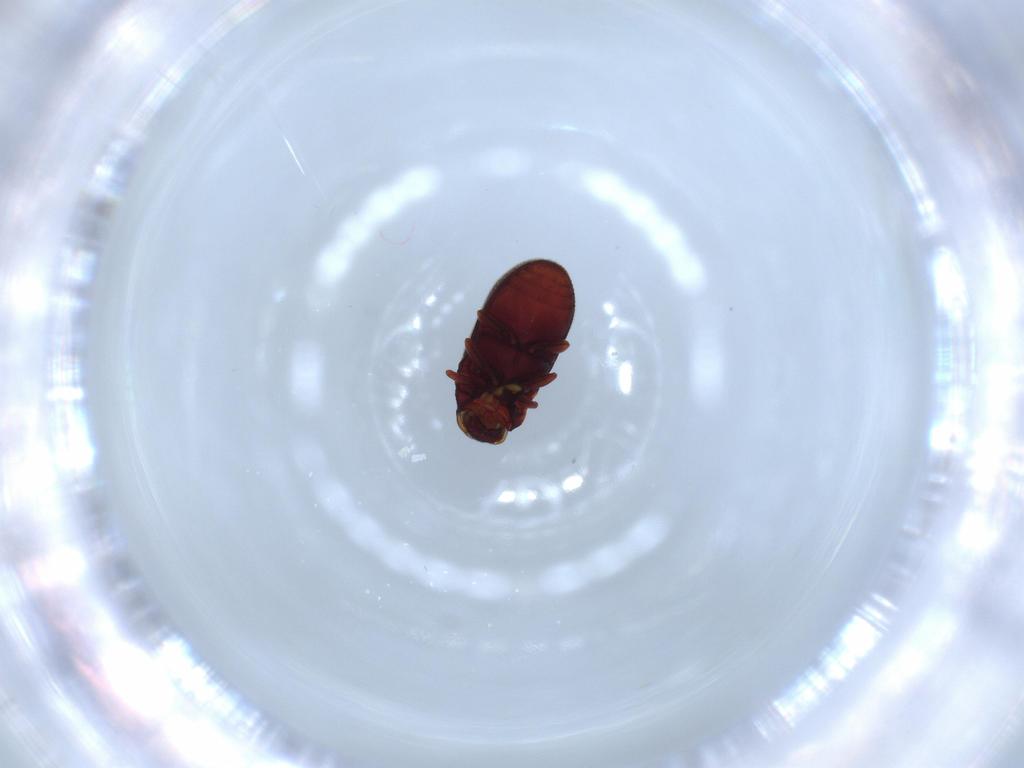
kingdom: Animalia
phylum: Arthropoda
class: Insecta
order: Coleoptera
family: Anobiidae
